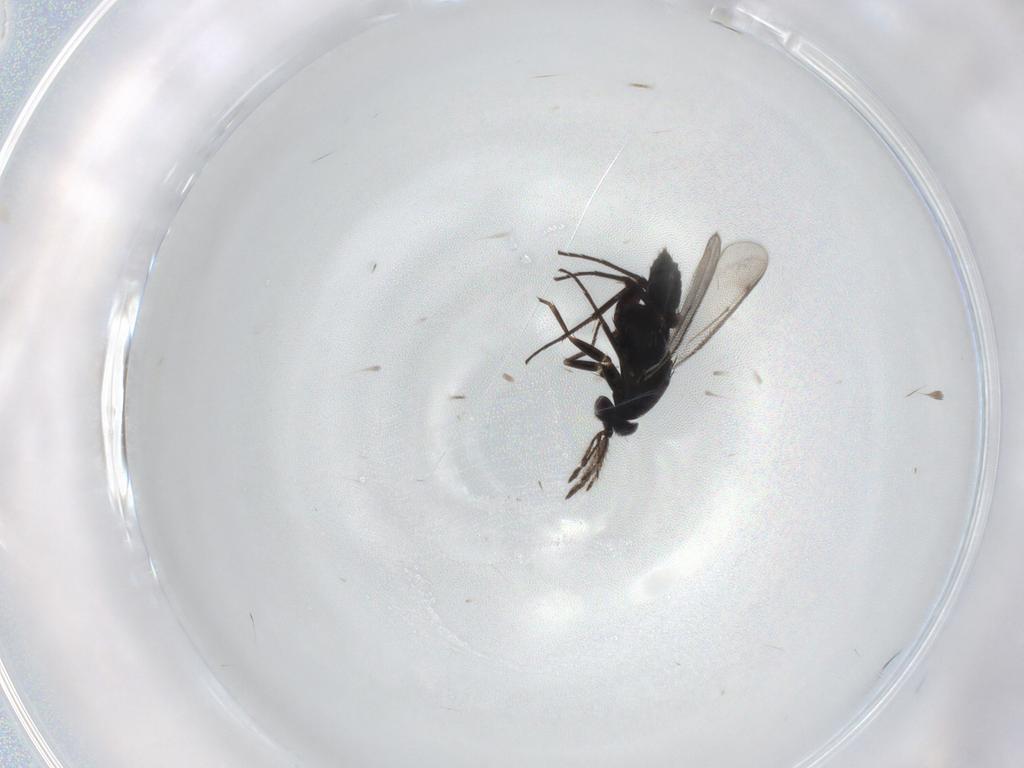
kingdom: Animalia
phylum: Arthropoda
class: Insecta
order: Hymenoptera
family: Eulophidae
